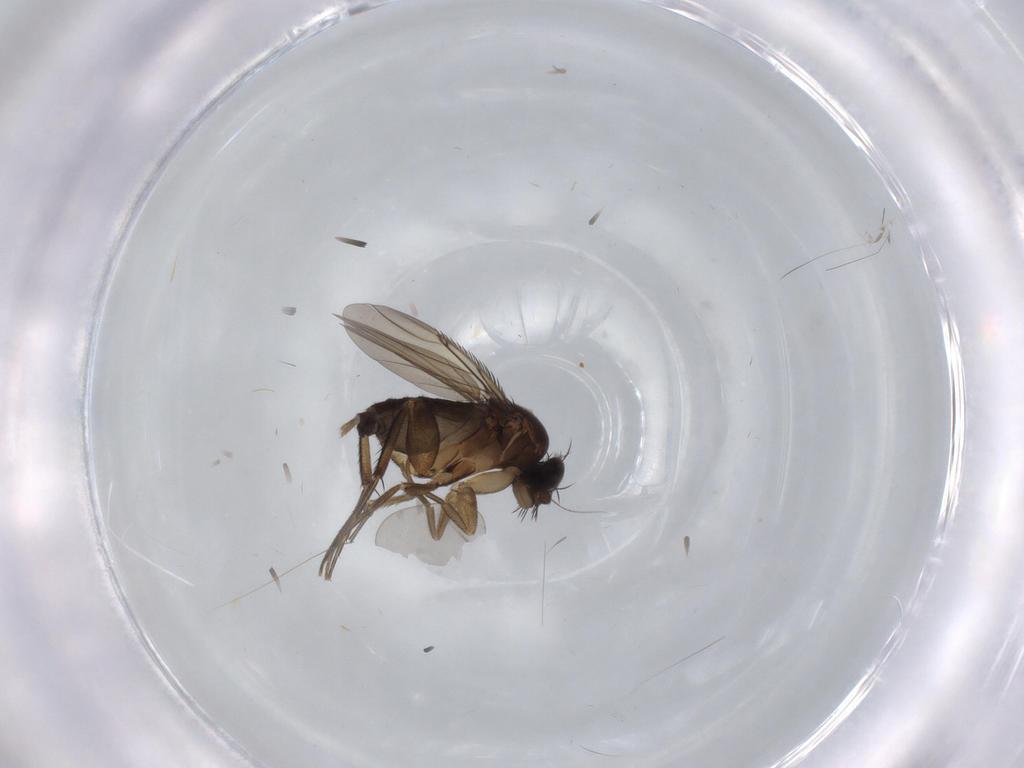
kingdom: Animalia
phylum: Arthropoda
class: Insecta
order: Diptera
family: Phoridae
